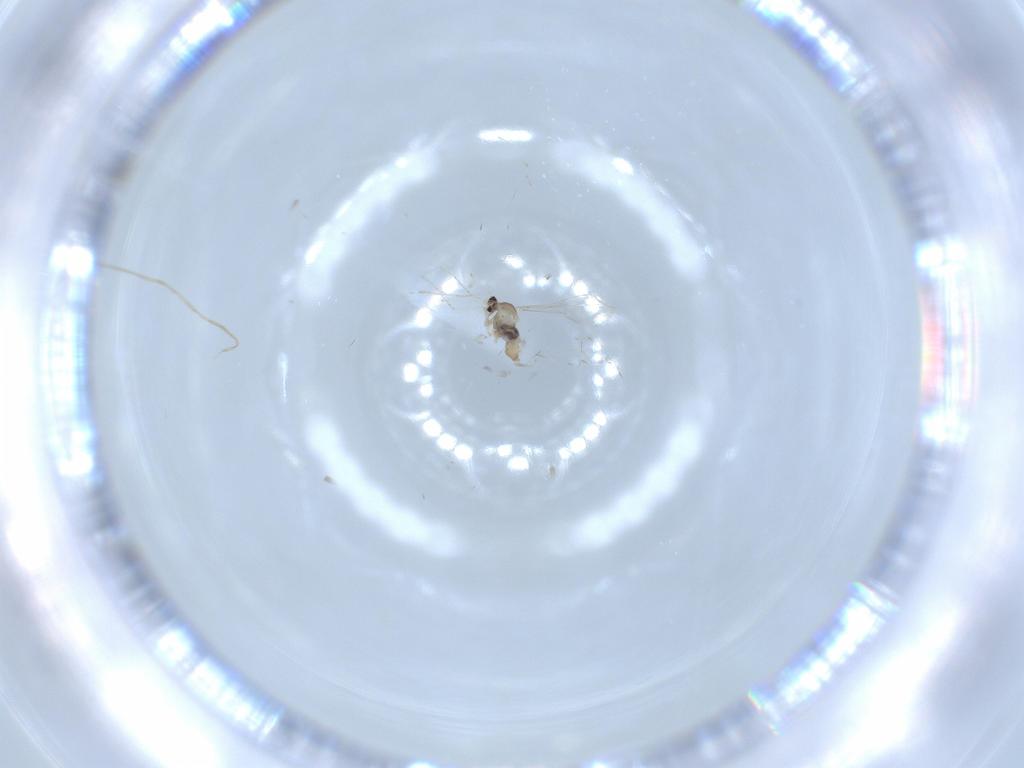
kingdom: Animalia
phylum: Arthropoda
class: Insecta
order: Diptera
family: Cecidomyiidae
